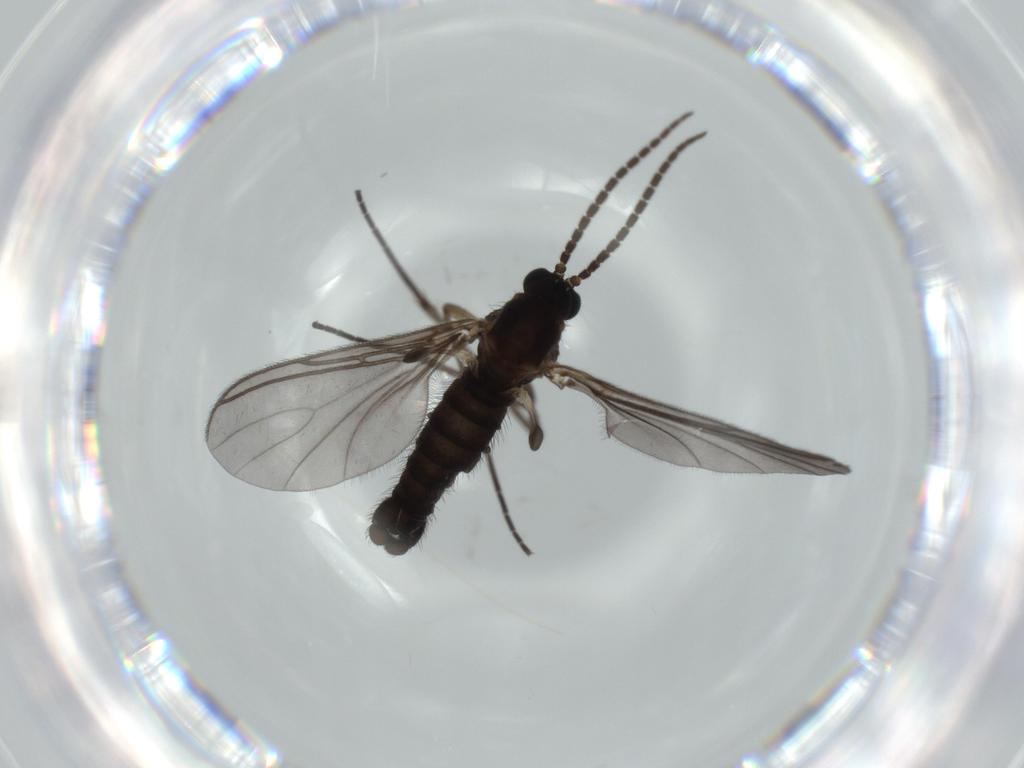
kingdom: Animalia
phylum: Arthropoda
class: Insecta
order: Diptera
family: Sciaridae
